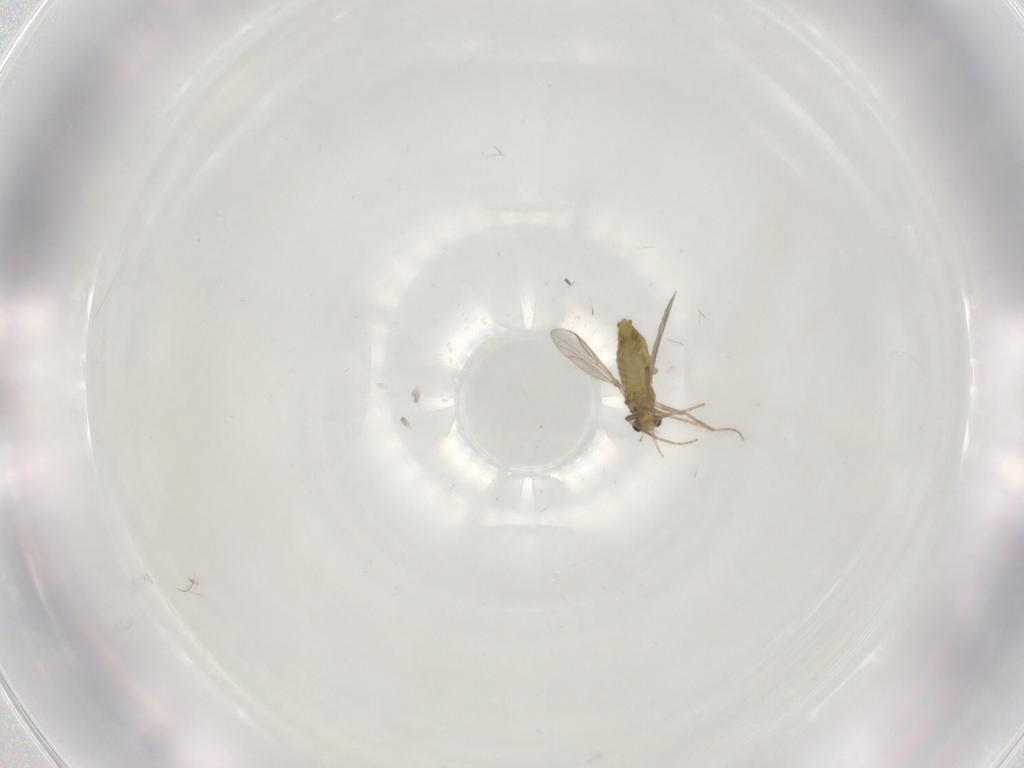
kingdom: Animalia
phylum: Arthropoda
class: Insecta
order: Diptera
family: Chironomidae
